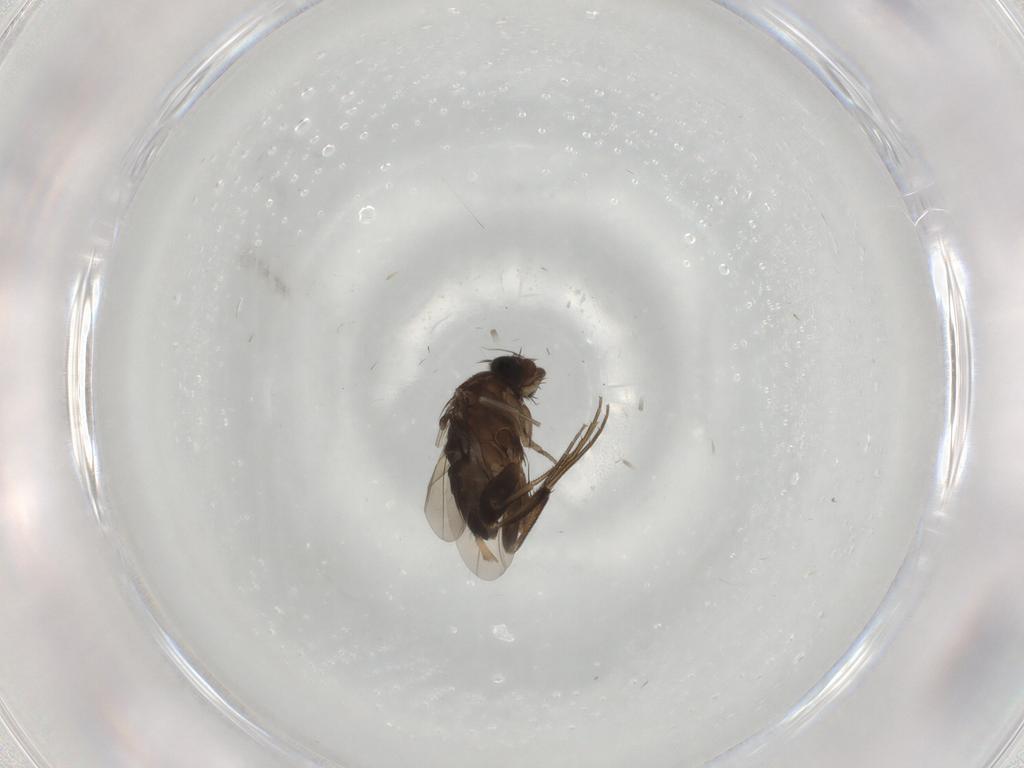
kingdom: Animalia
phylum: Arthropoda
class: Insecta
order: Diptera
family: Phoridae
